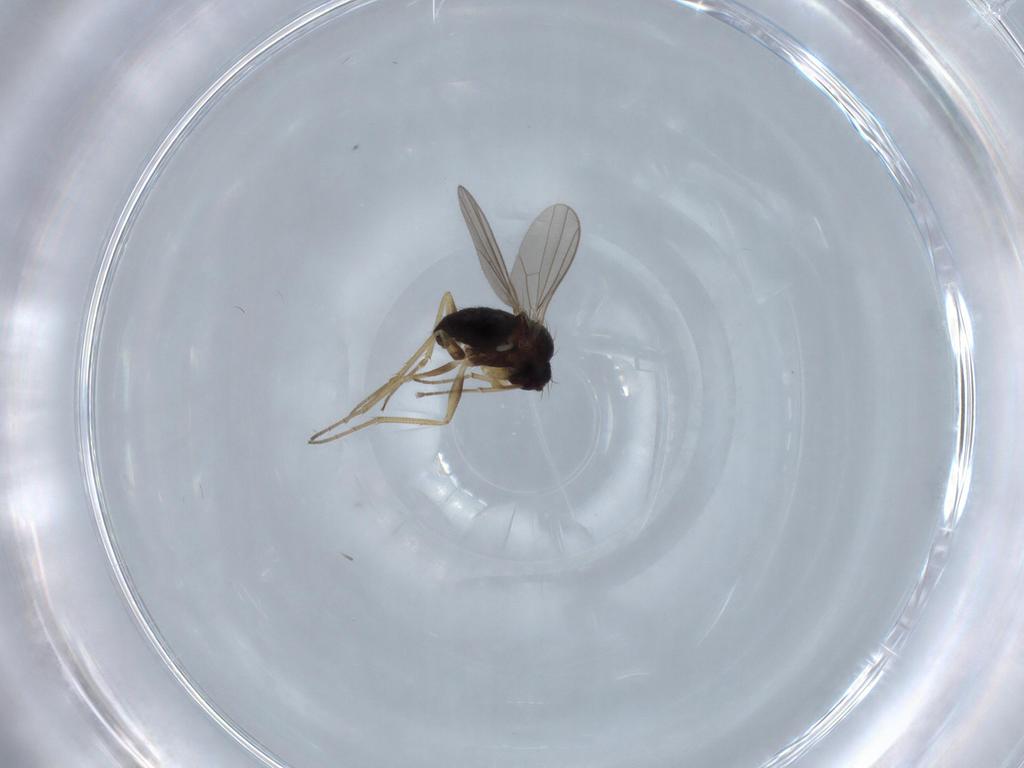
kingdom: Animalia
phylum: Arthropoda
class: Insecta
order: Diptera
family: Dolichopodidae
